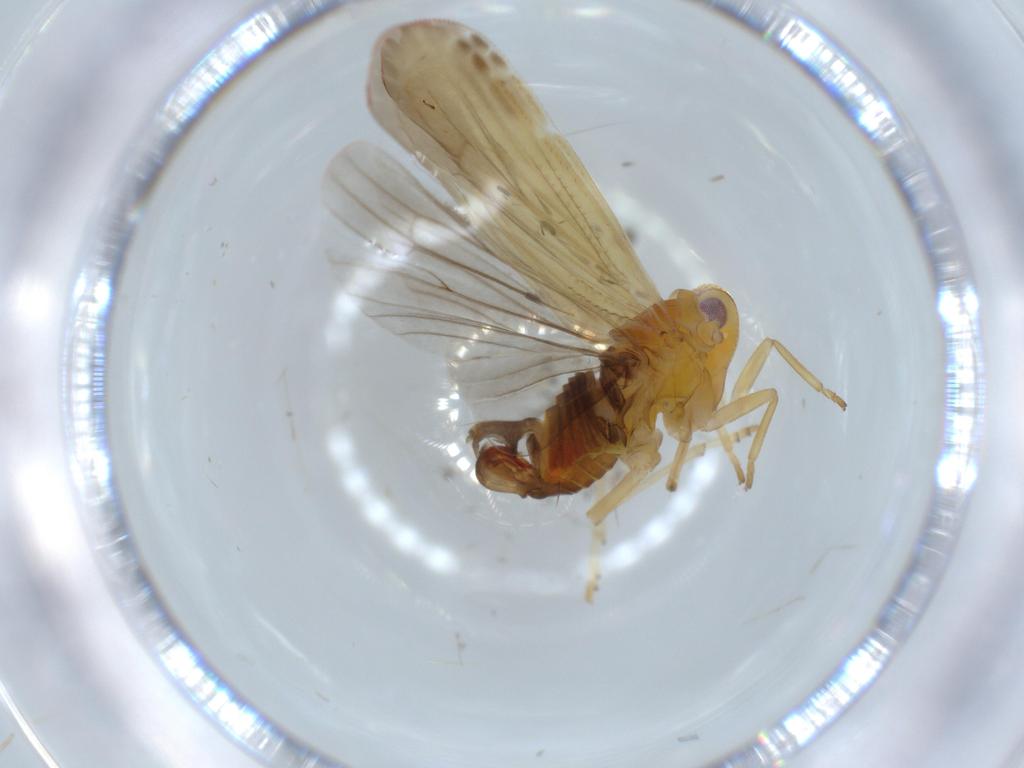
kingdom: Animalia
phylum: Arthropoda
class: Insecta
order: Hemiptera
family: Derbidae
